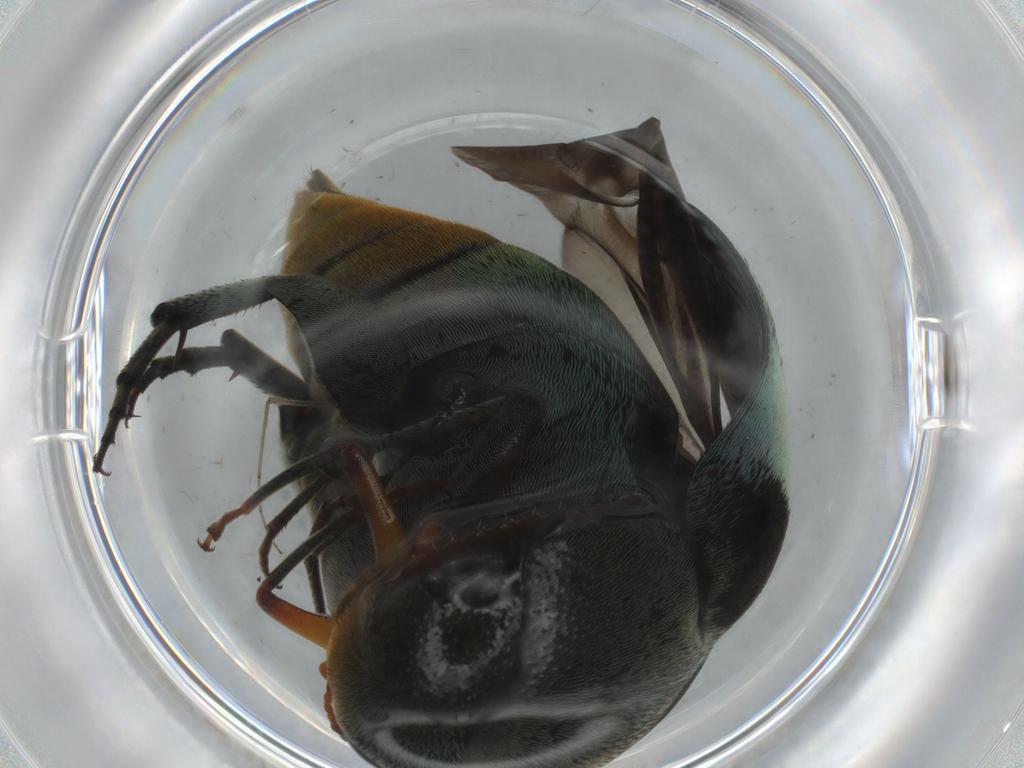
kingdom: Animalia
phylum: Arthropoda
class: Insecta
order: Coleoptera
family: Mordellidae
